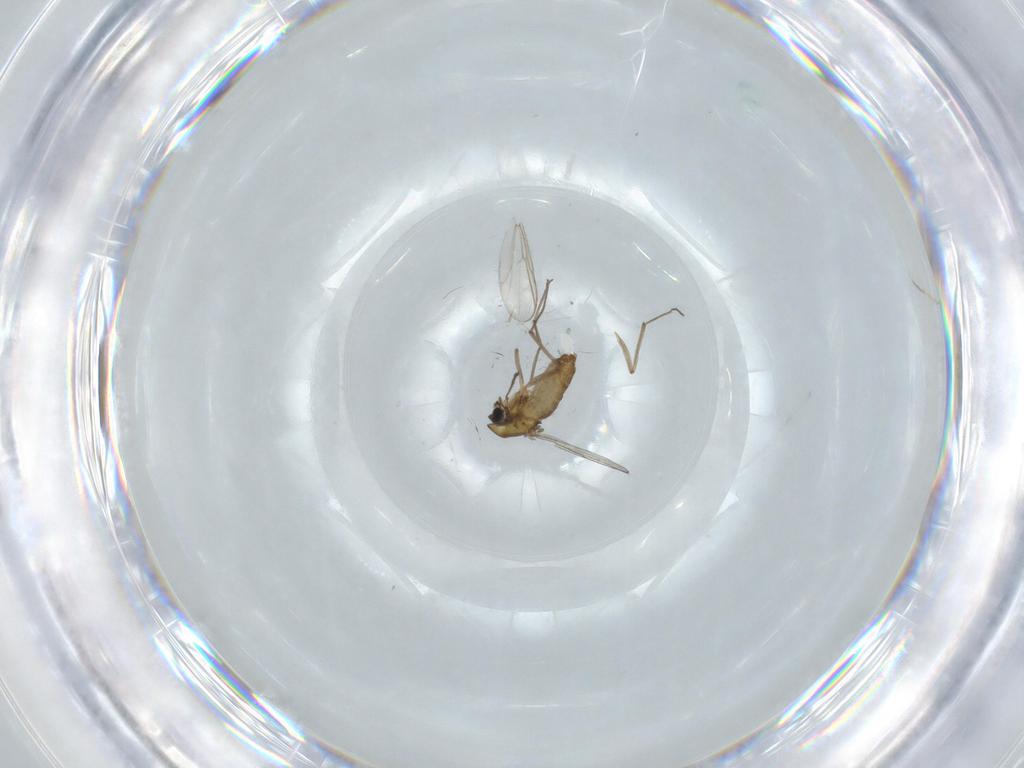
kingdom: Animalia
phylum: Arthropoda
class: Insecta
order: Diptera
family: Chironomidae
